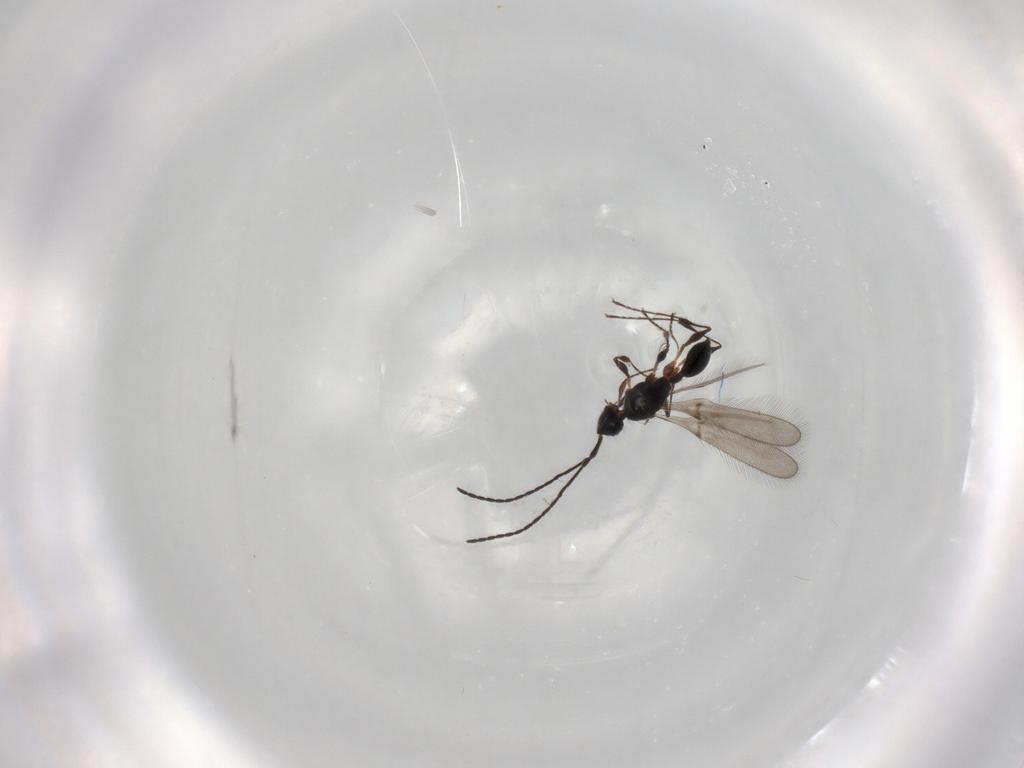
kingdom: Animalia
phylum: Arthropoda
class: Insecta
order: Hymenoptera
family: Diapriidae
